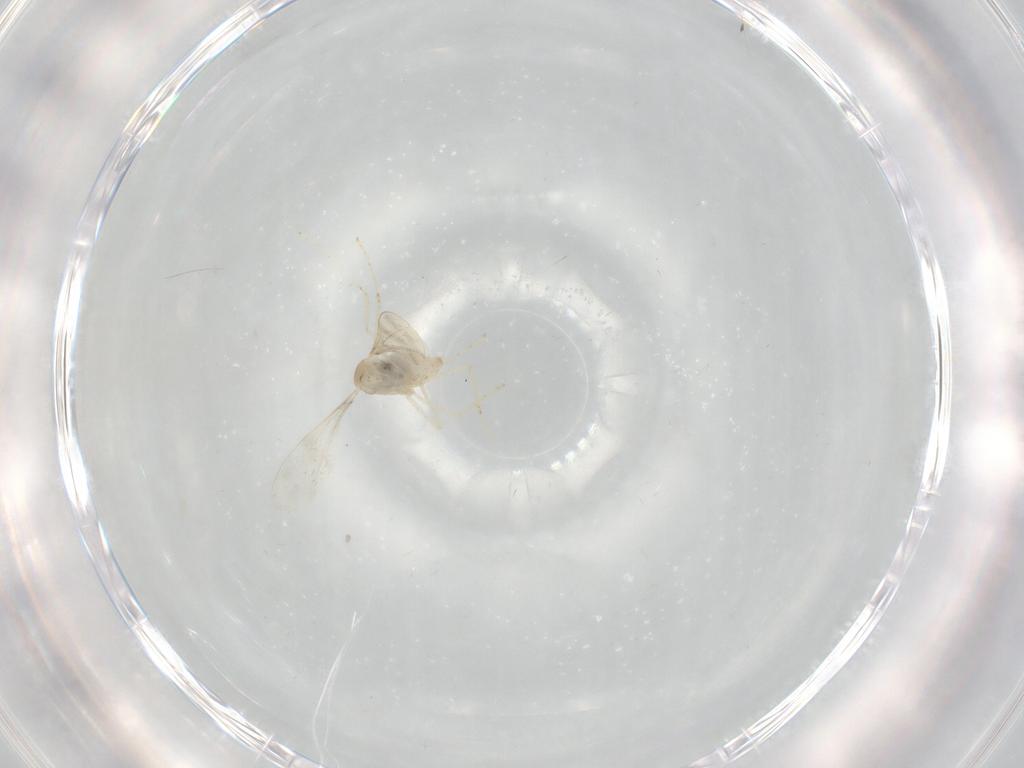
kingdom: Animalia
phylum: Arthropoda
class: Insecta
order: Diptera
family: Cecidomyiidae
